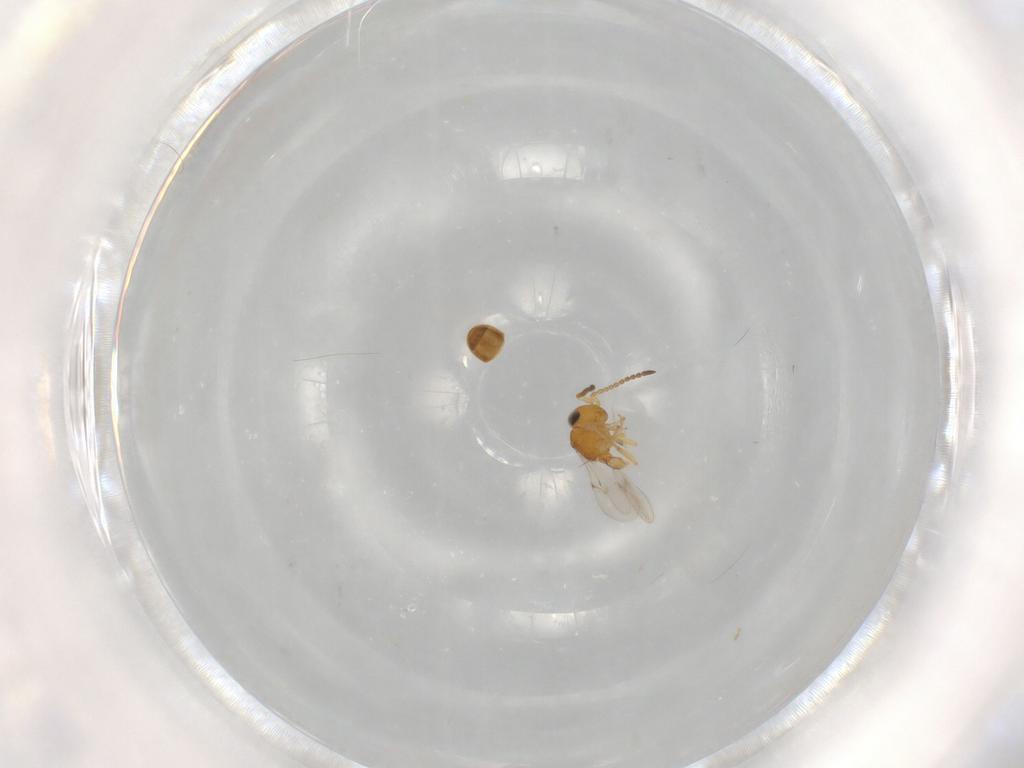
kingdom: Animalia
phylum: Arthropoda
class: Insecta
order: Hymenoptera
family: Scelionidae
